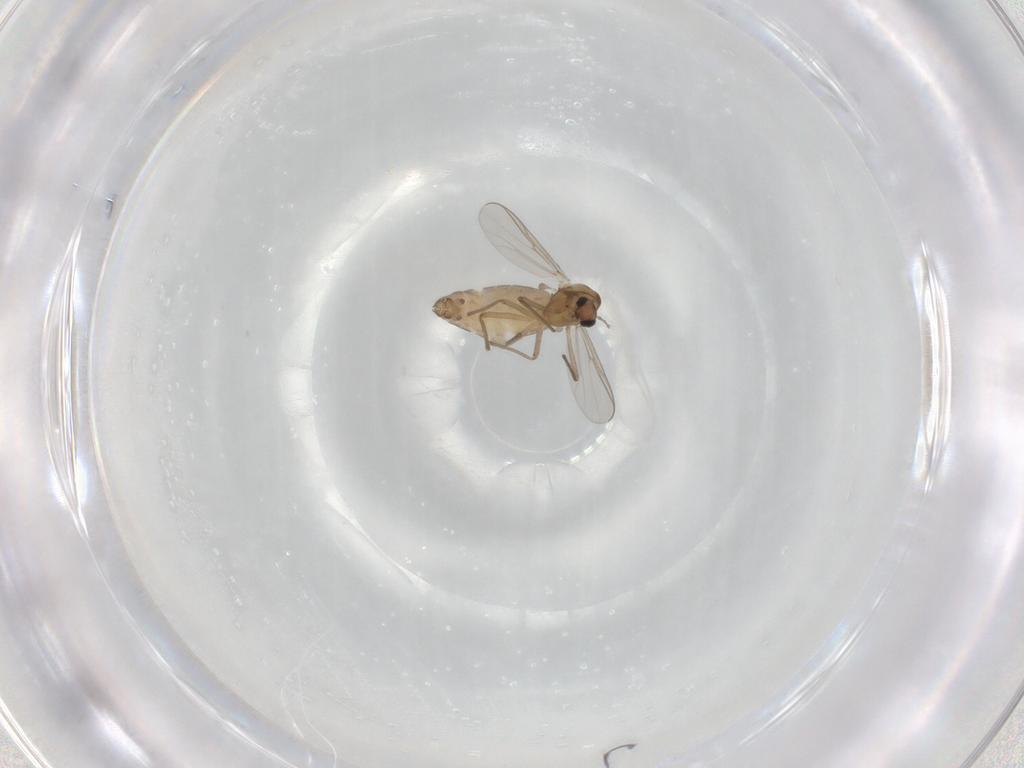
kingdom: Animalia
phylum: Arthropoda
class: Insecta
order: Diptera
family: Chironomidae
